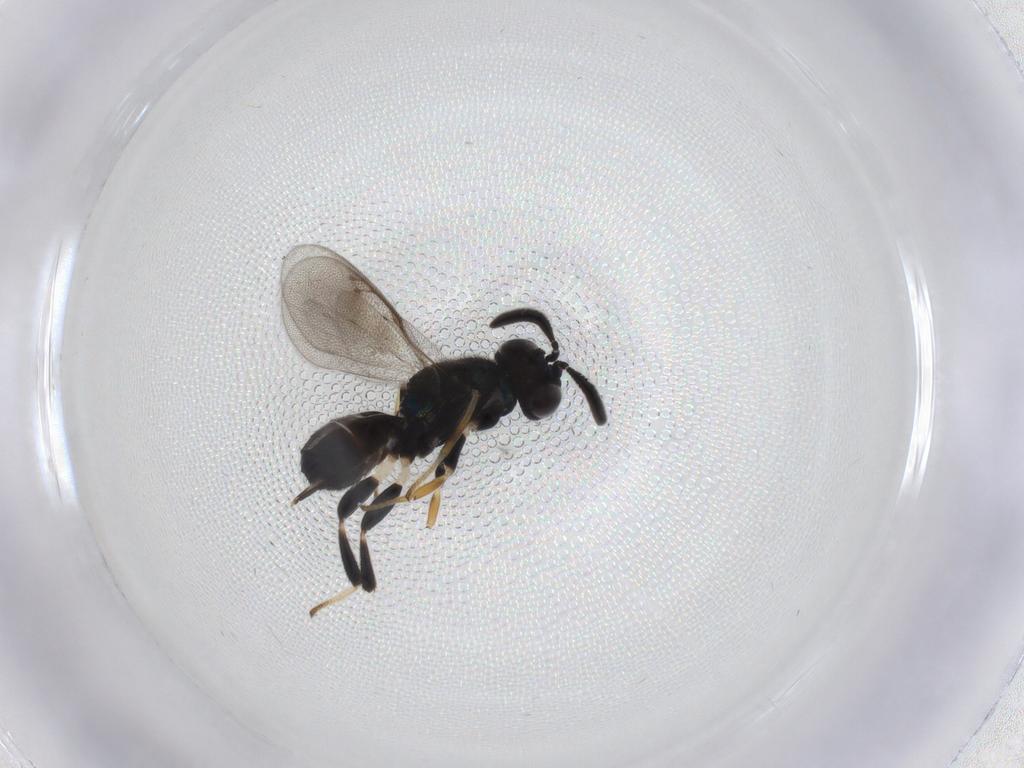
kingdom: Animalia
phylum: Arthropoda
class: Insecta
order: Hymenoptera
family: Eupelmidae
